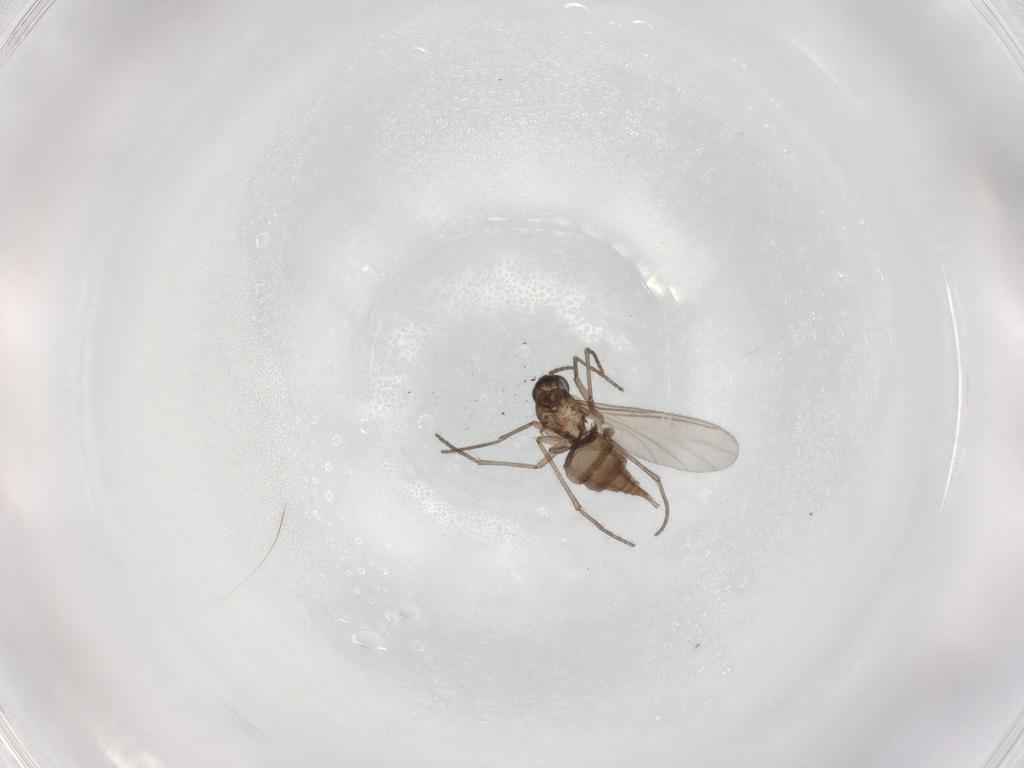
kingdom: Animalia
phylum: Arthropoda
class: Insecta
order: Diptera
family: Sciaridae
